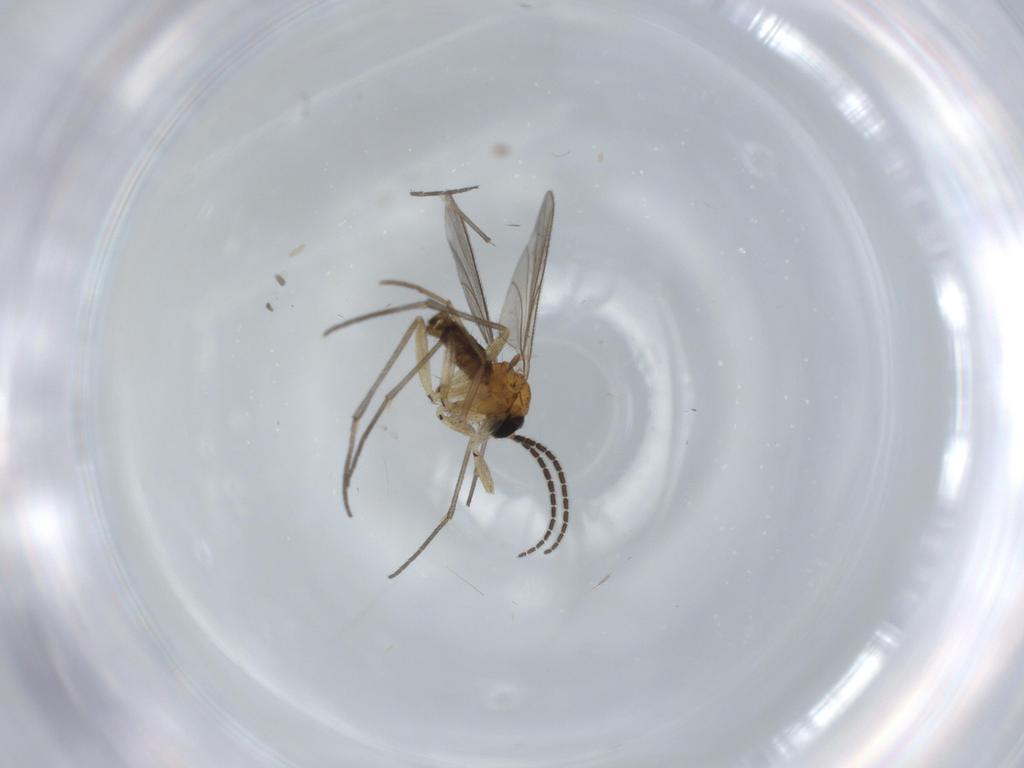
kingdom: Animalia
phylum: Arthropoda
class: Insecta
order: Diptera
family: Sciaridae
